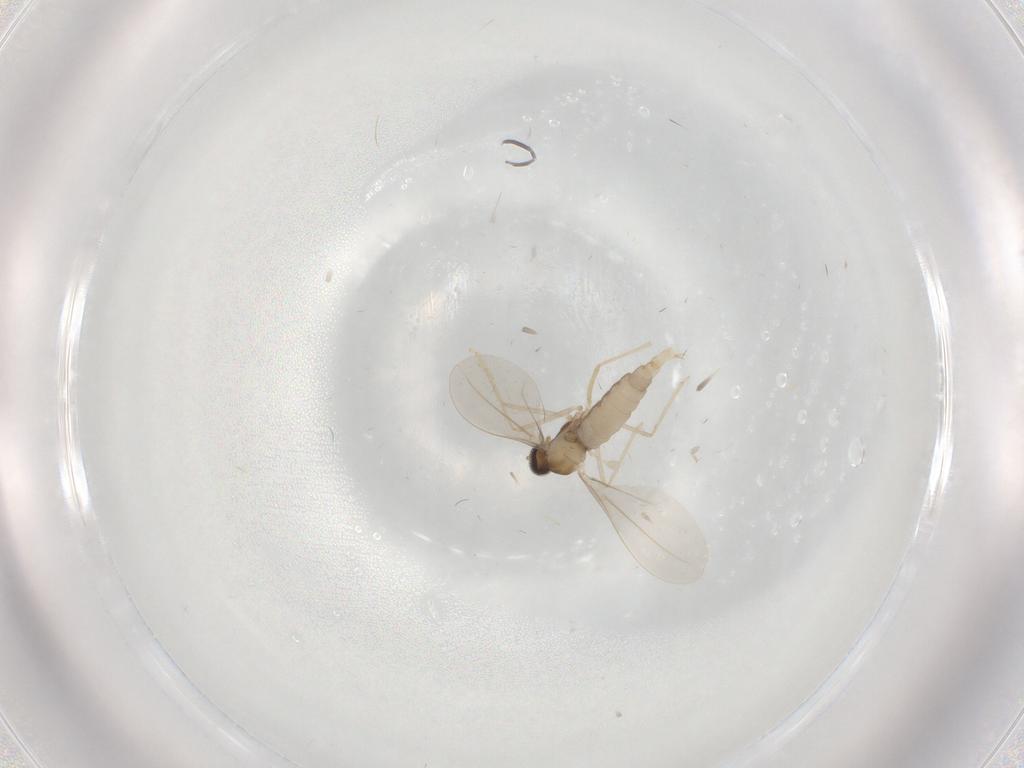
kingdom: Animalia
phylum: Arthropoda
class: Insecta
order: Diptera
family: Cecidomyiidae
